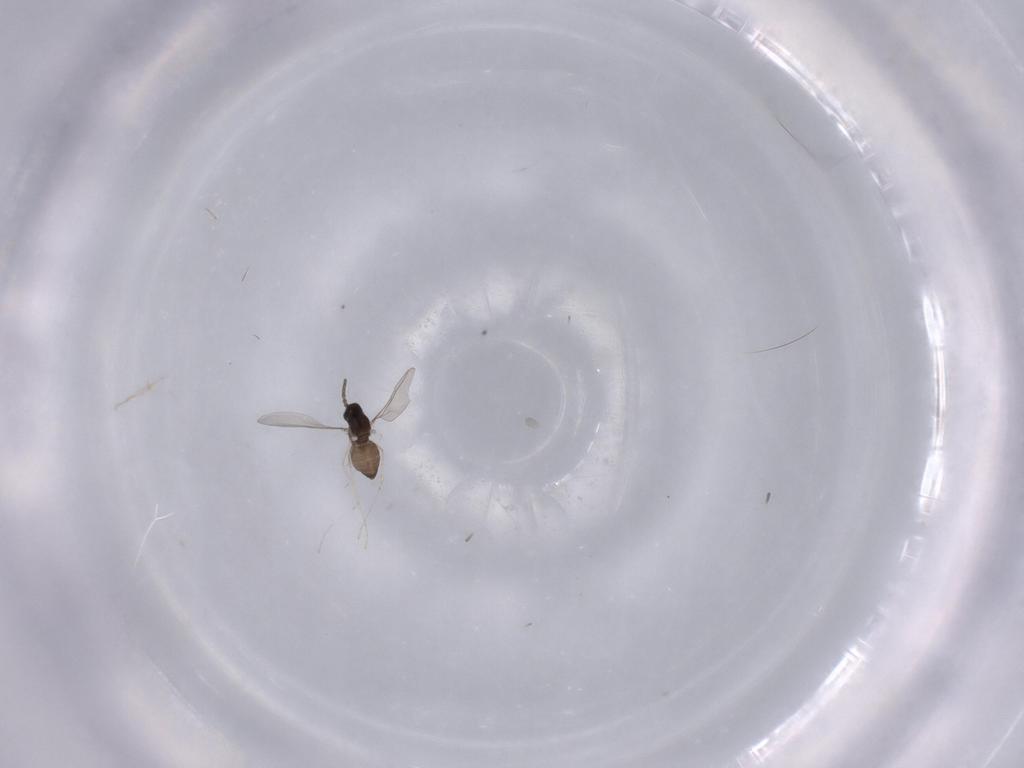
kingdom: Animalia
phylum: Arthropoda
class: Insecta
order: Diptera
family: Cecidomyiidae
